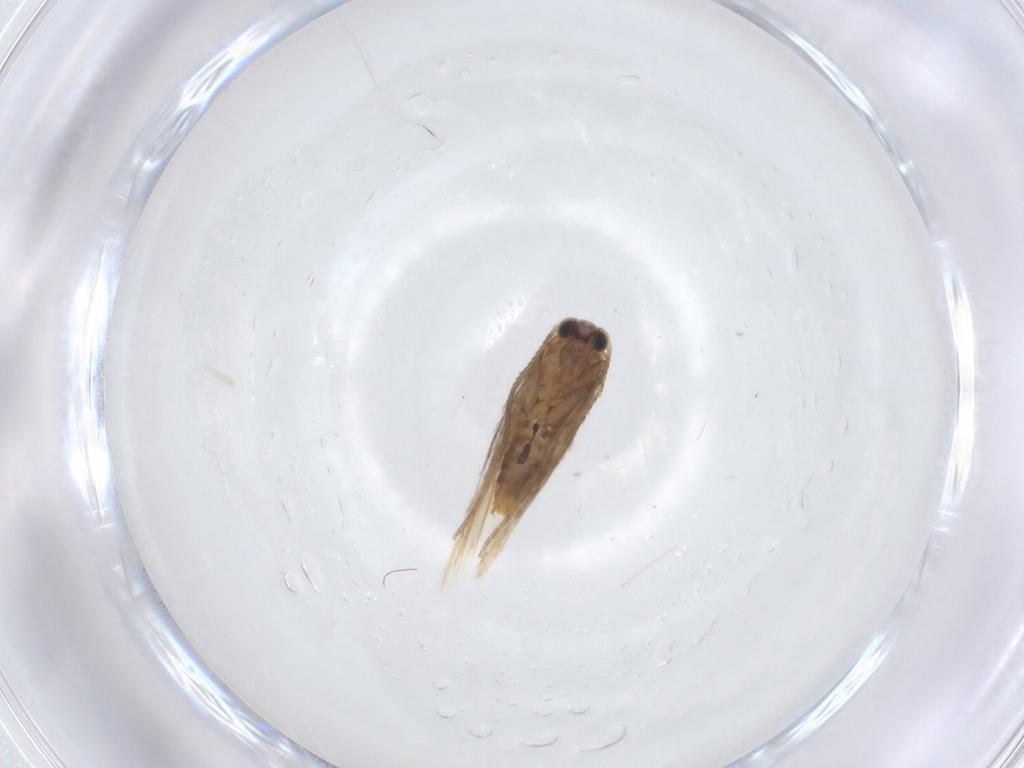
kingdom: Animalia
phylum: Arthropoda
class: Insecta
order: Lepidoptera
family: Nepticulidae
